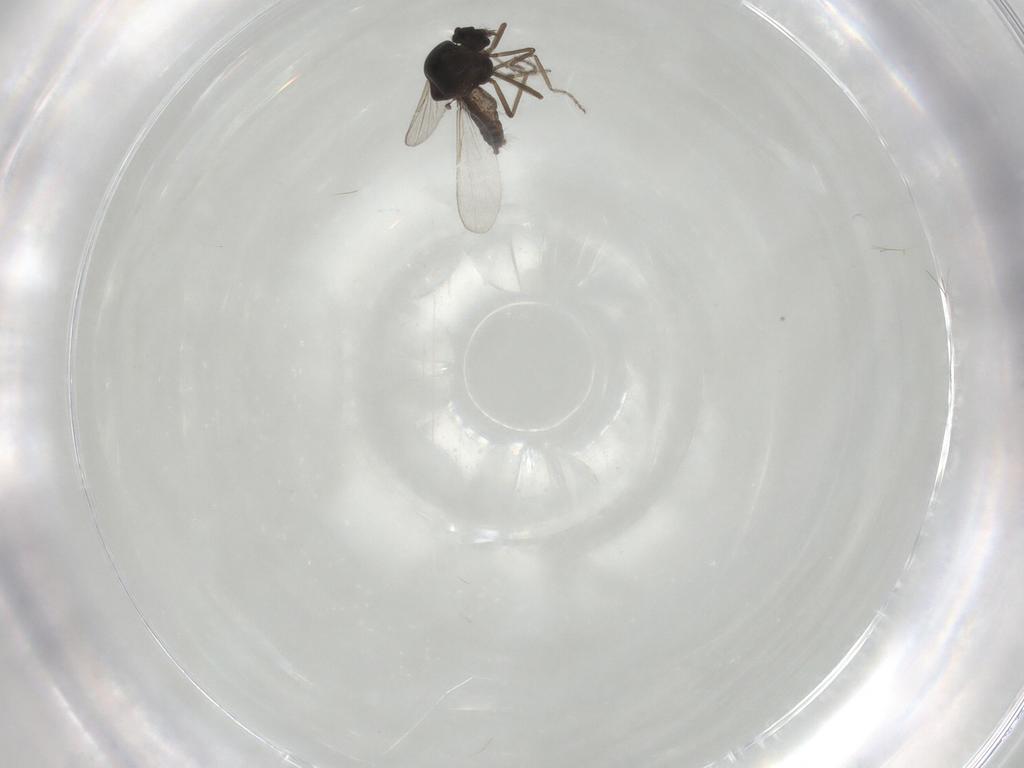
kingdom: Animalia
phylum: Arthropoda
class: Insecta
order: Diptera
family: Ceratopogonidae
